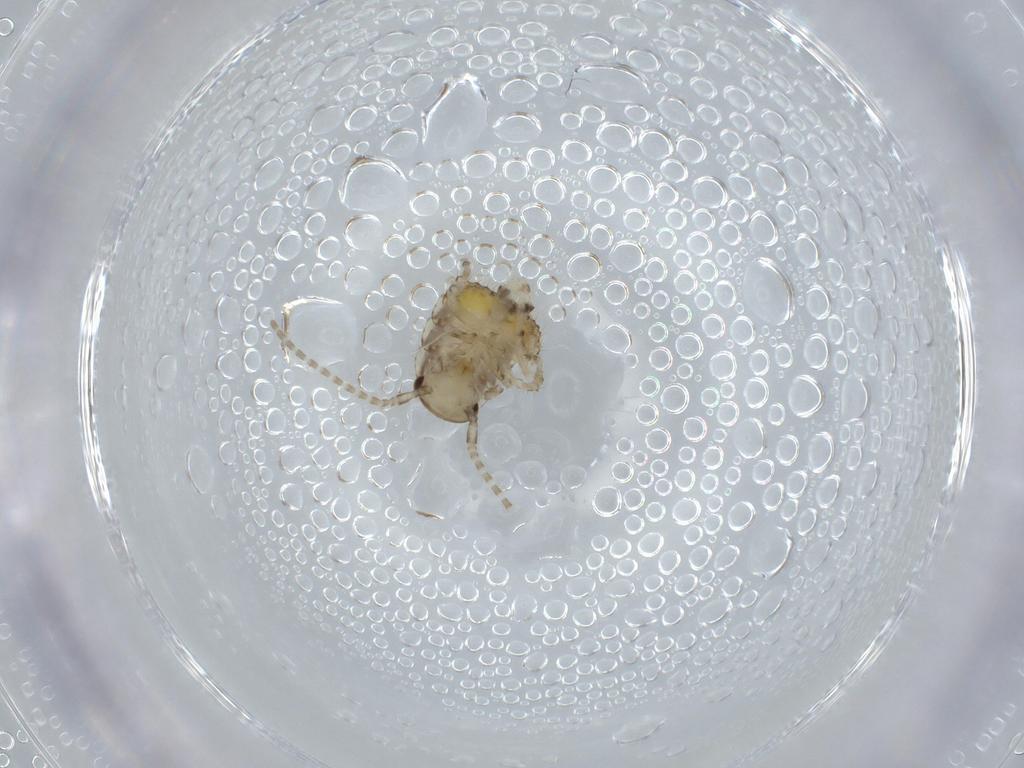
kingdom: Animalia
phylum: Arthropoda
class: Insecta
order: Blattodea
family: Ectobiidae
